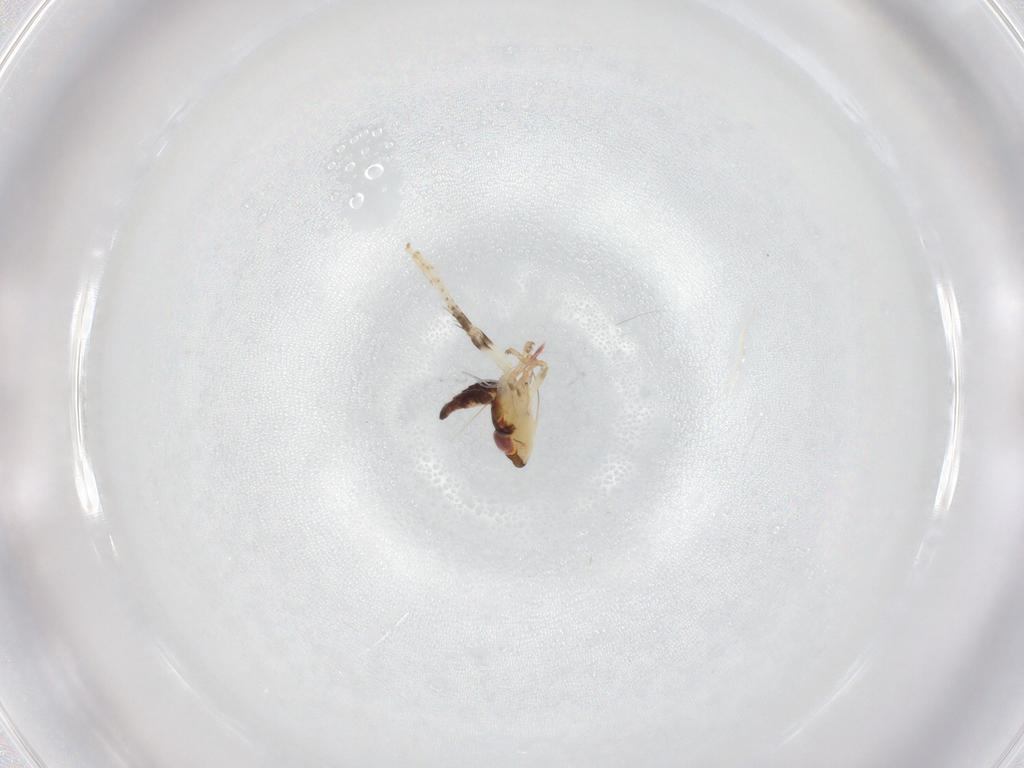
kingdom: Animalia
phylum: Arthropoda
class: Insecta
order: Hemiptera
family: Cicadellidae
